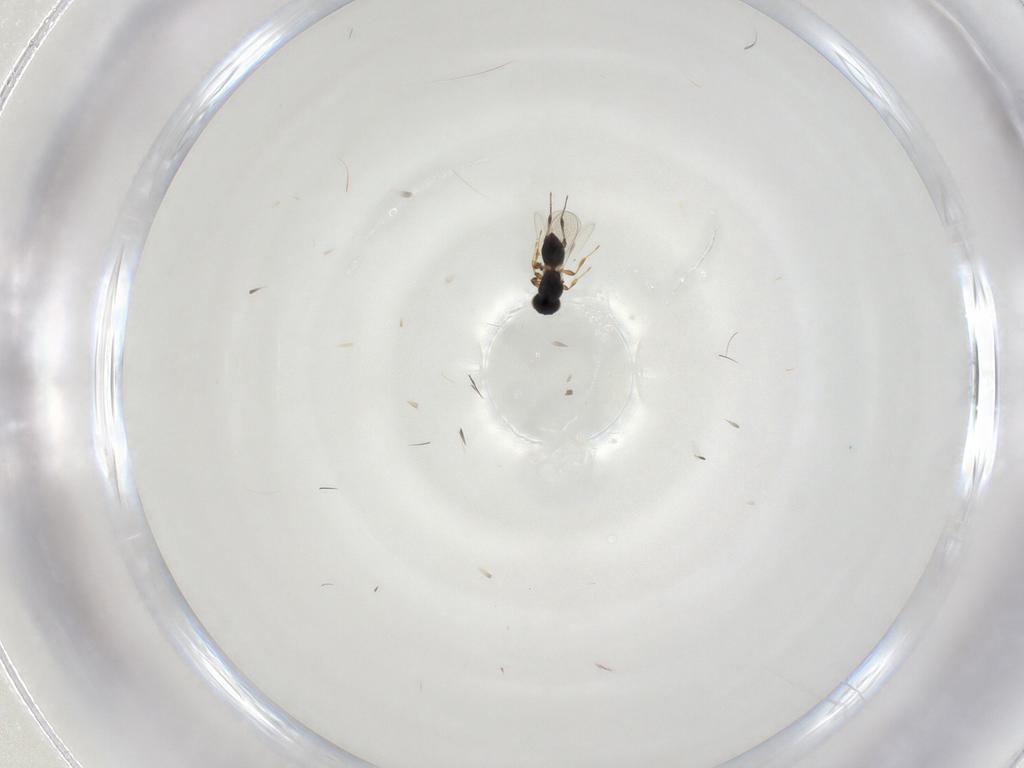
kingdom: Animalia
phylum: Arthropoda
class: Insecta
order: Hymenoptera
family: Platygastridae
